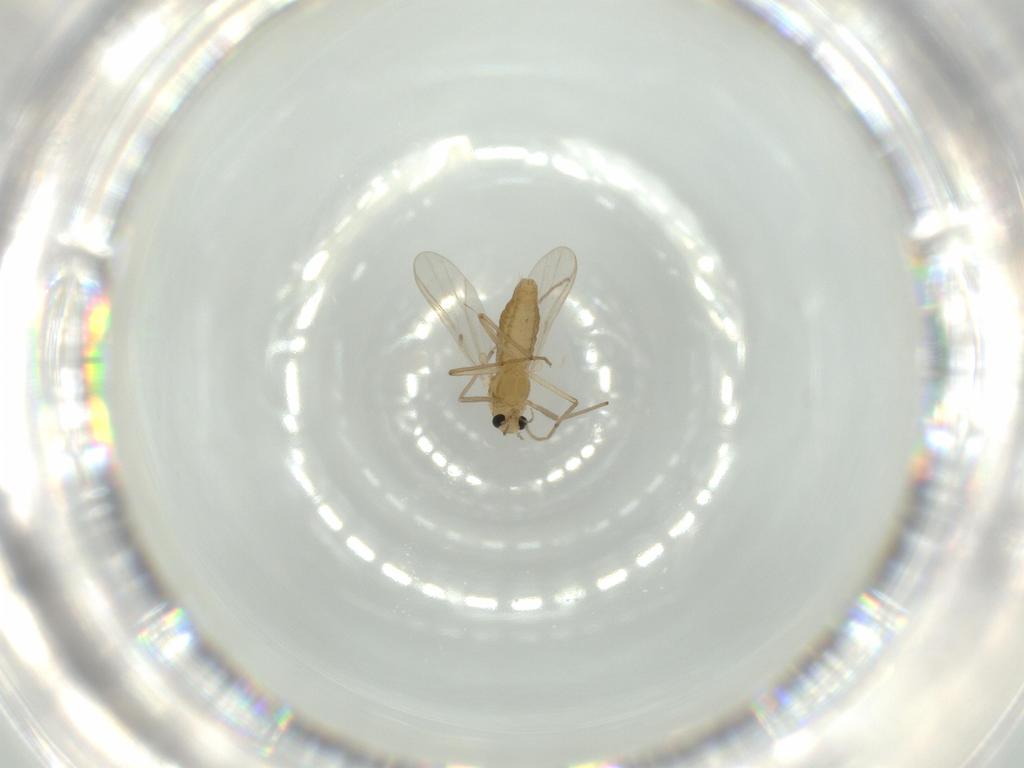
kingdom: Animalia
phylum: Arthropoda
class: Insecta
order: Diptera
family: Chironomidae
